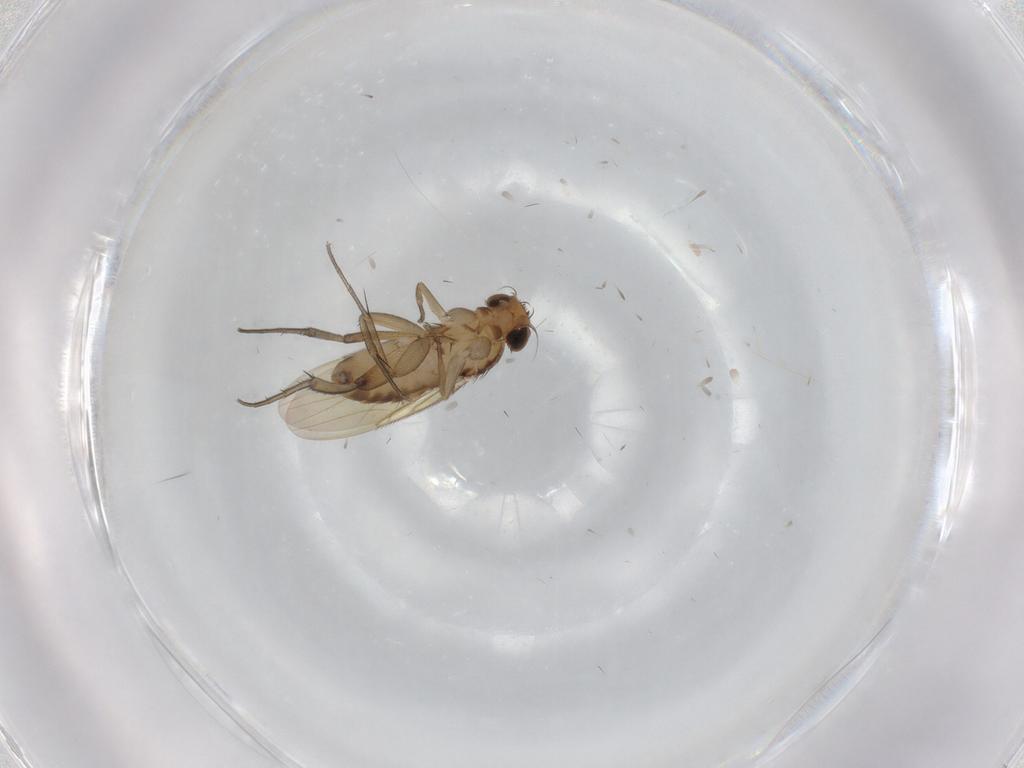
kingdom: Animalia
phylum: Arthropoda
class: Insecta
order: Diptera
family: Phoridae
